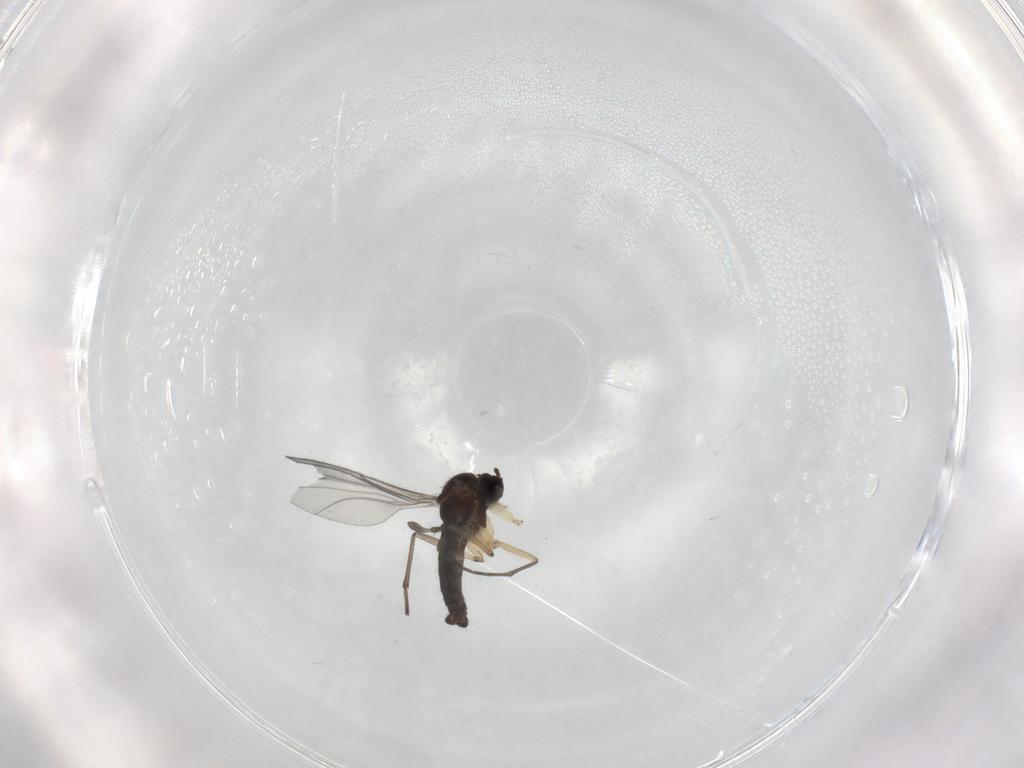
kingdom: Animalia
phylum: Arthropoda
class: Insecta
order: Diptera
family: Sciaridae
